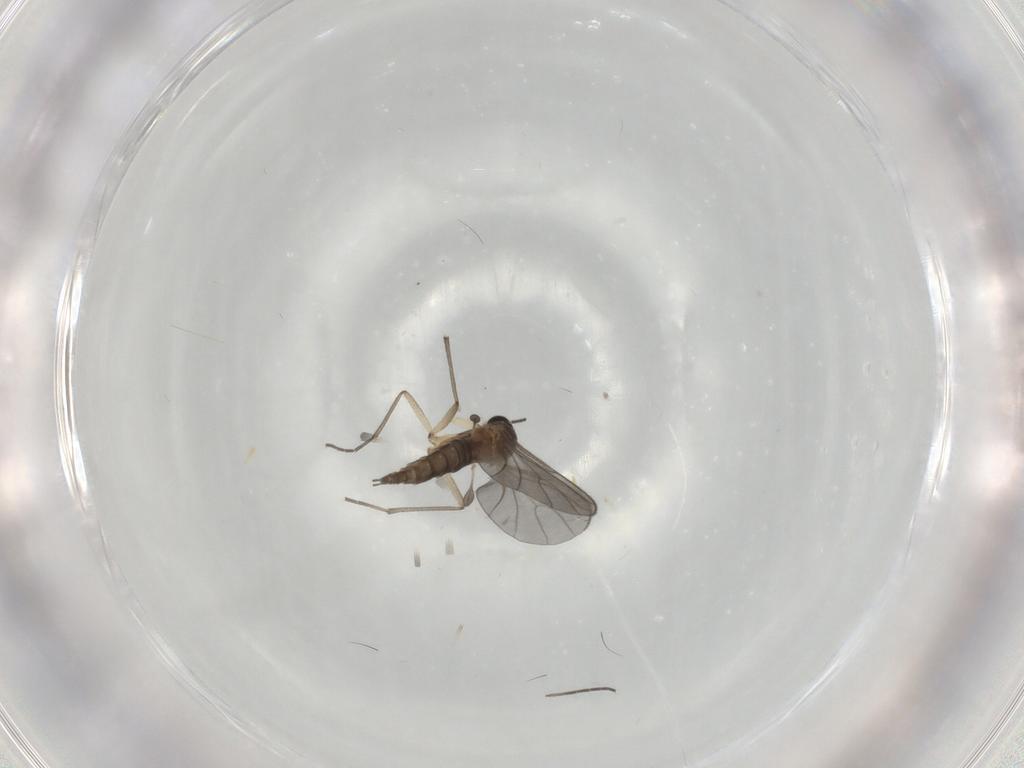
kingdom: Animalia
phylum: Arthropoda
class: Insecta
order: Diptera
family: Sciaridae
